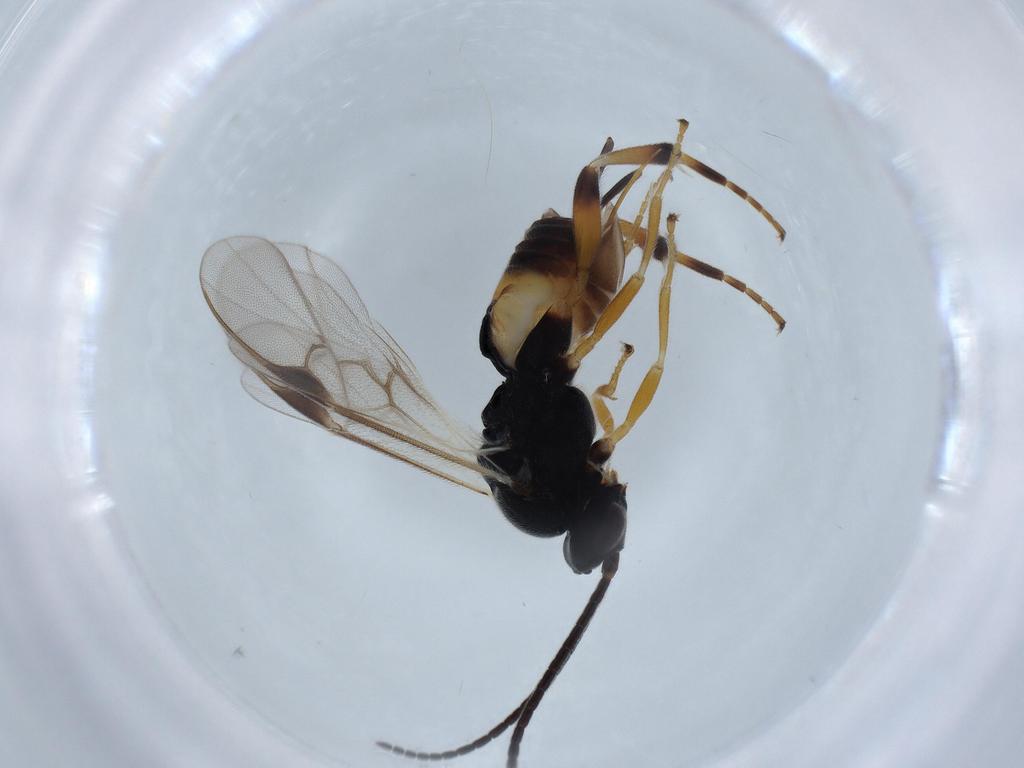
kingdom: Animalia
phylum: Arthropoda
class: Insecta
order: Hymenoptera
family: Braconidae
